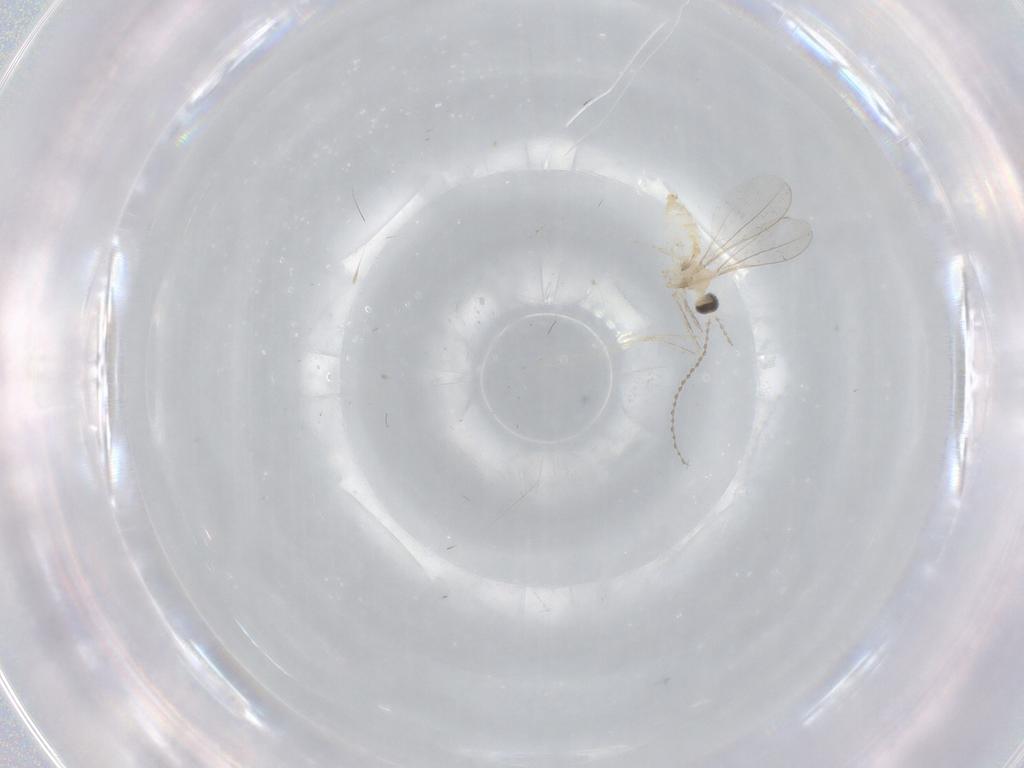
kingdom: Animalia
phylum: Arthropoda
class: Insecta
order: Diptera
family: Cecidomyiidae
